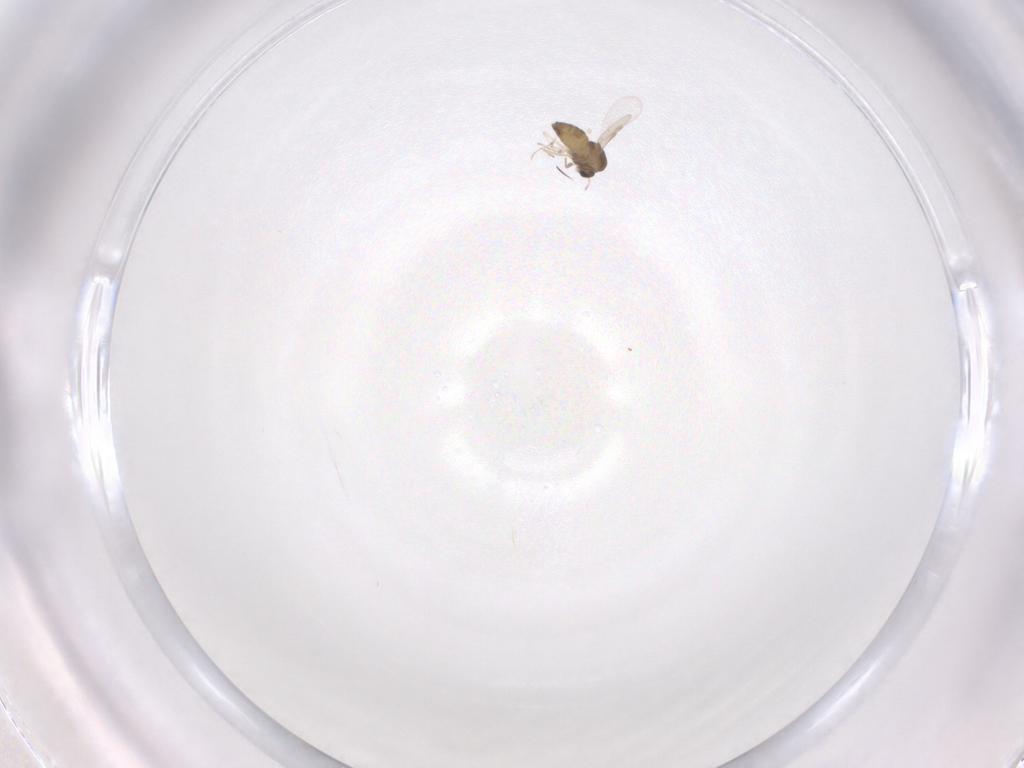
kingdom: Animalia
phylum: Arthropoda
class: Insecta
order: Diptera
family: Chironomidae
